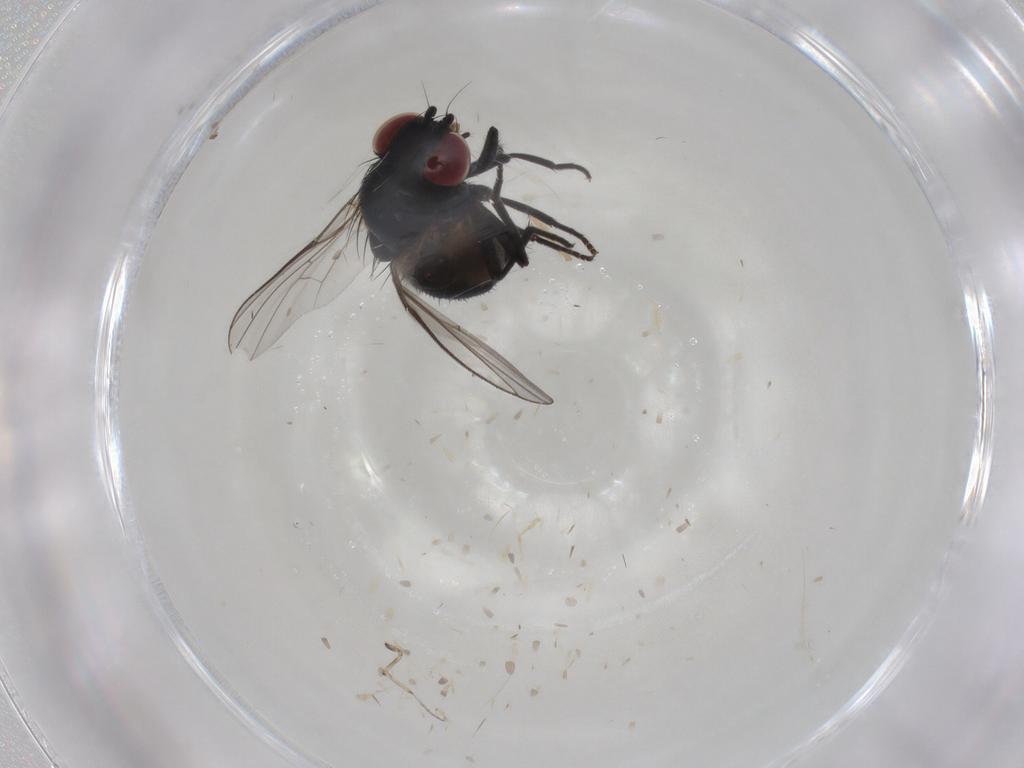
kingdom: Animalia
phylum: Arthropoda
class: Insecta
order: Diptera
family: Agromyzidae
